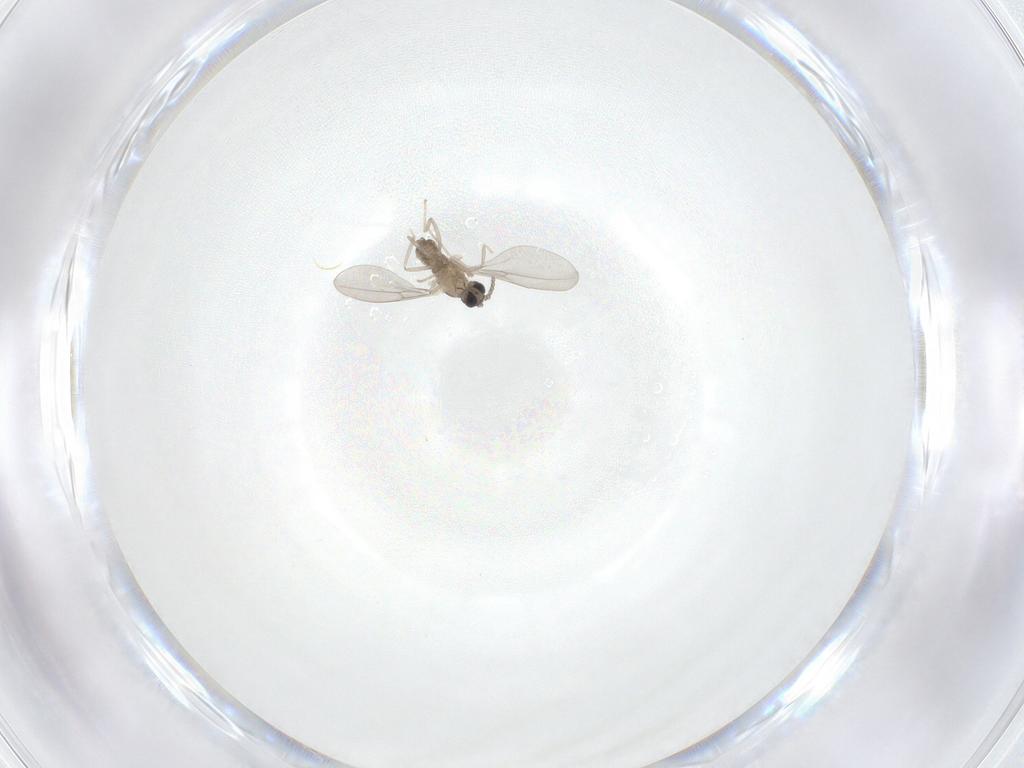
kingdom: Animalia
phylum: Arthropoda
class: Insecta
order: Diptera
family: Cecidomyiidae
